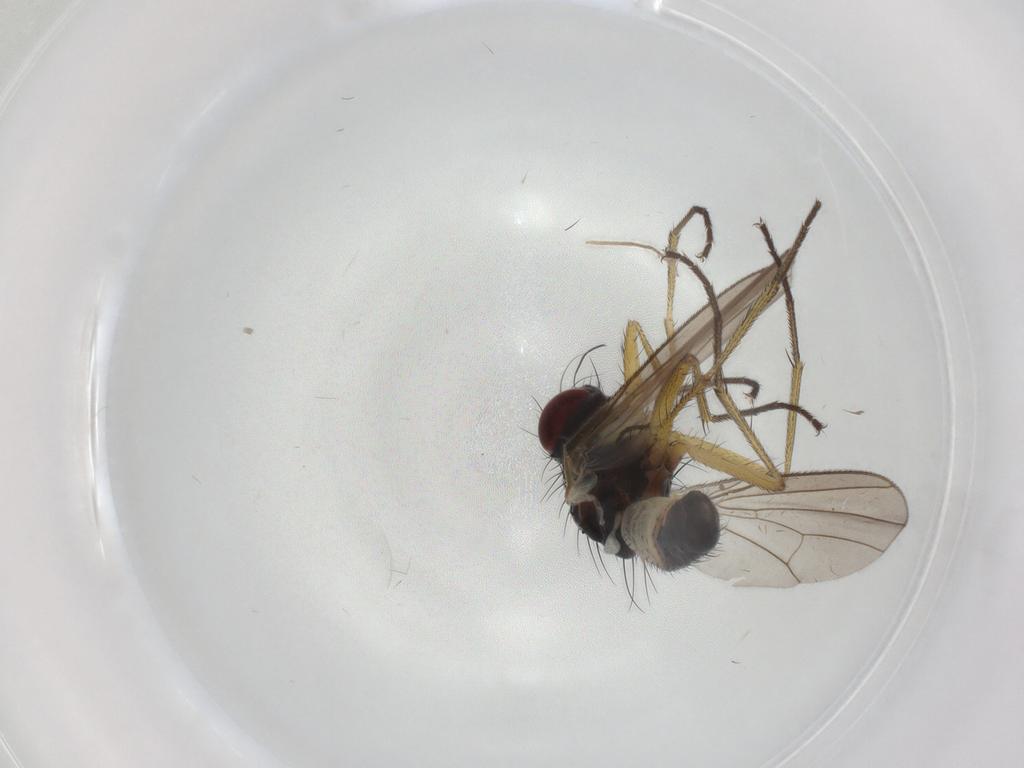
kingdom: Animalia
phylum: Arthropoda
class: Insecta
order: Diptera
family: Muscidae
